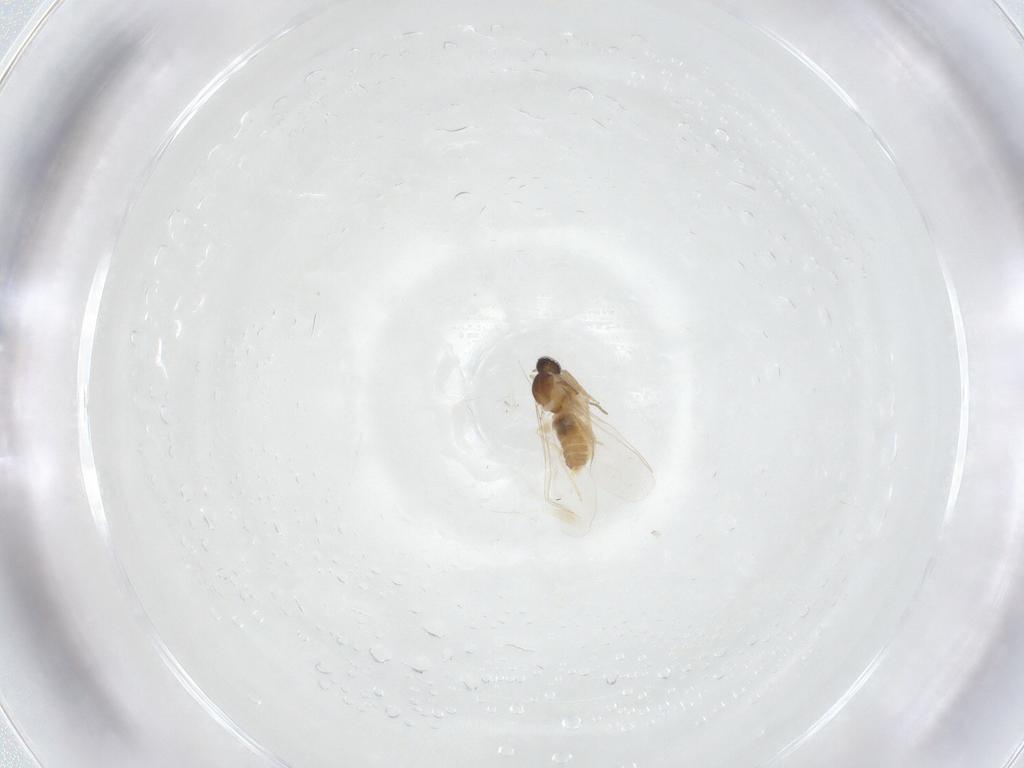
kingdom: Animalia
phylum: Arthropoda
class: Insecta
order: Diptera
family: Cecidomyiidae
